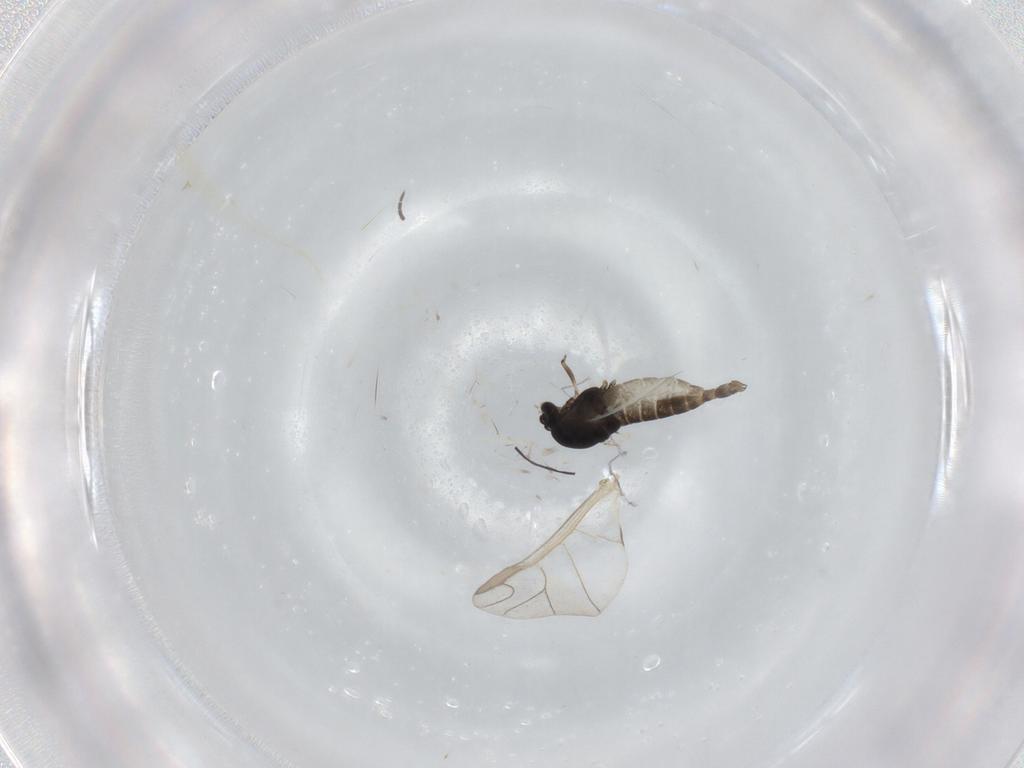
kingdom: Animalia
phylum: Arthropoda
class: Insecta
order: Diptera
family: Chironomidae
